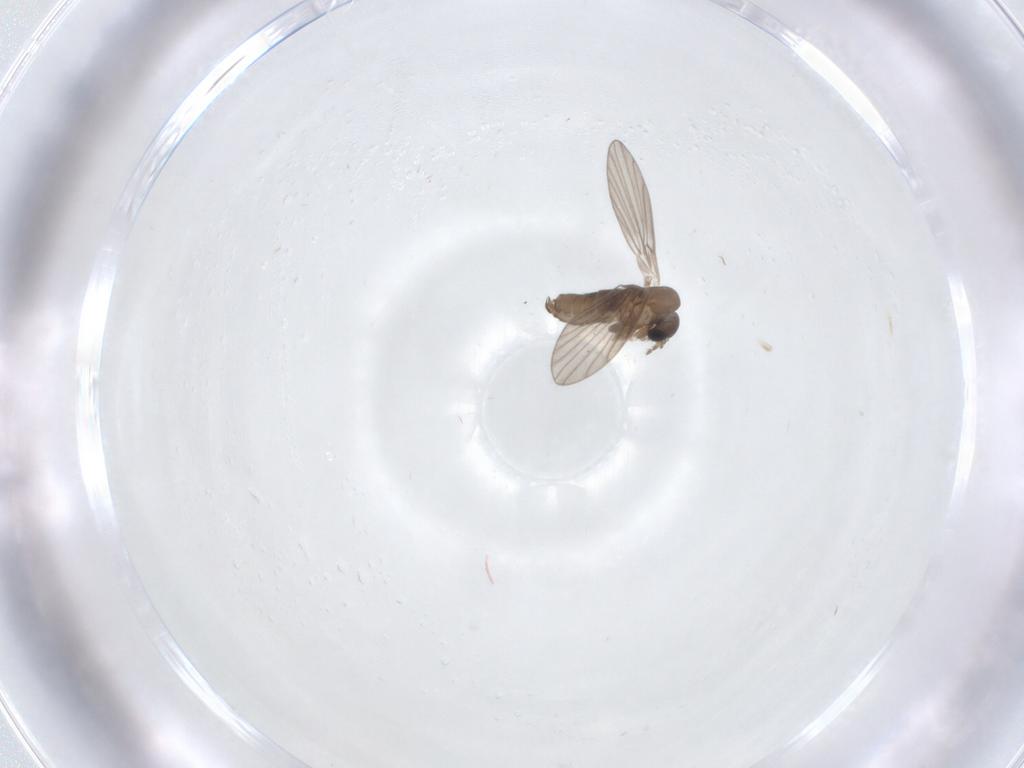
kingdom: Animalia
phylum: Arthropoda
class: Insecta
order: Diptera
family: Psychodidae
